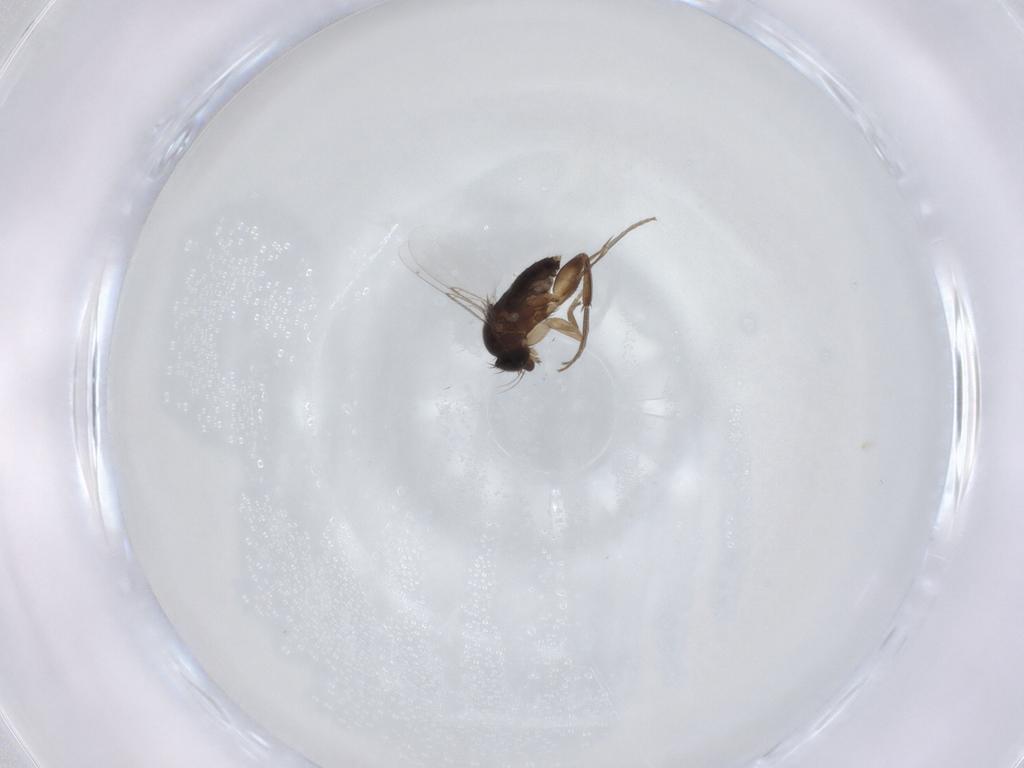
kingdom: Animalia
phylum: Arthropoda
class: Insecta
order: Diptera
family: Phoridae
